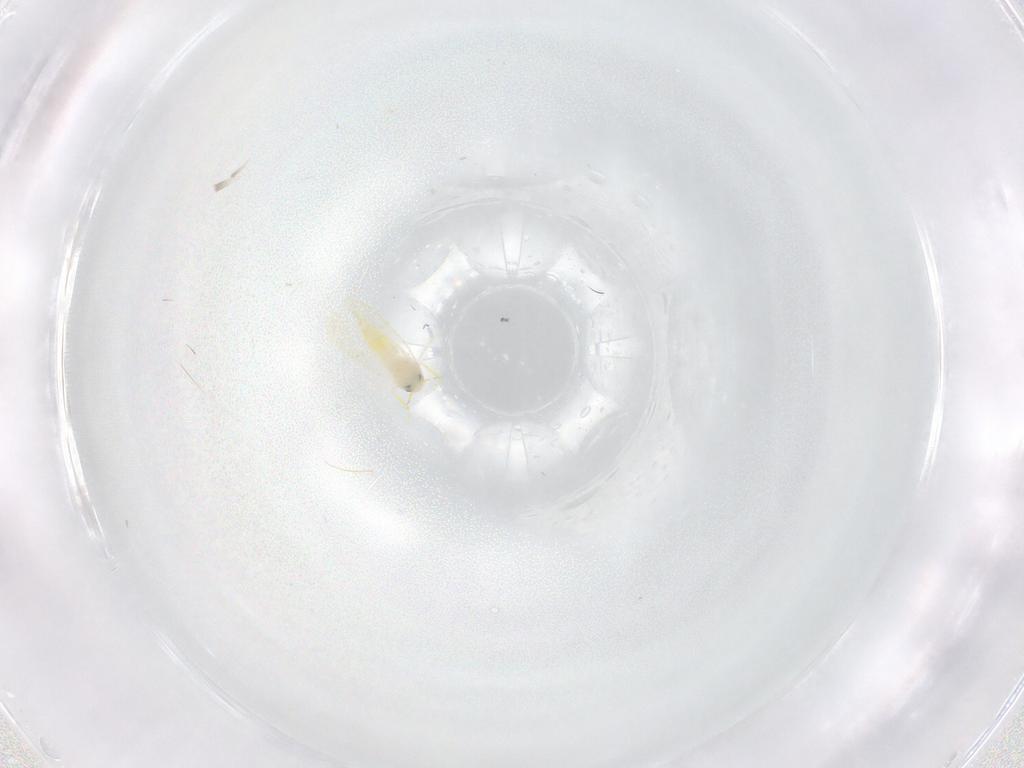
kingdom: Animalia
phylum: Arthropoda
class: Insecta
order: Hemiptera
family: Aleyrodidae
